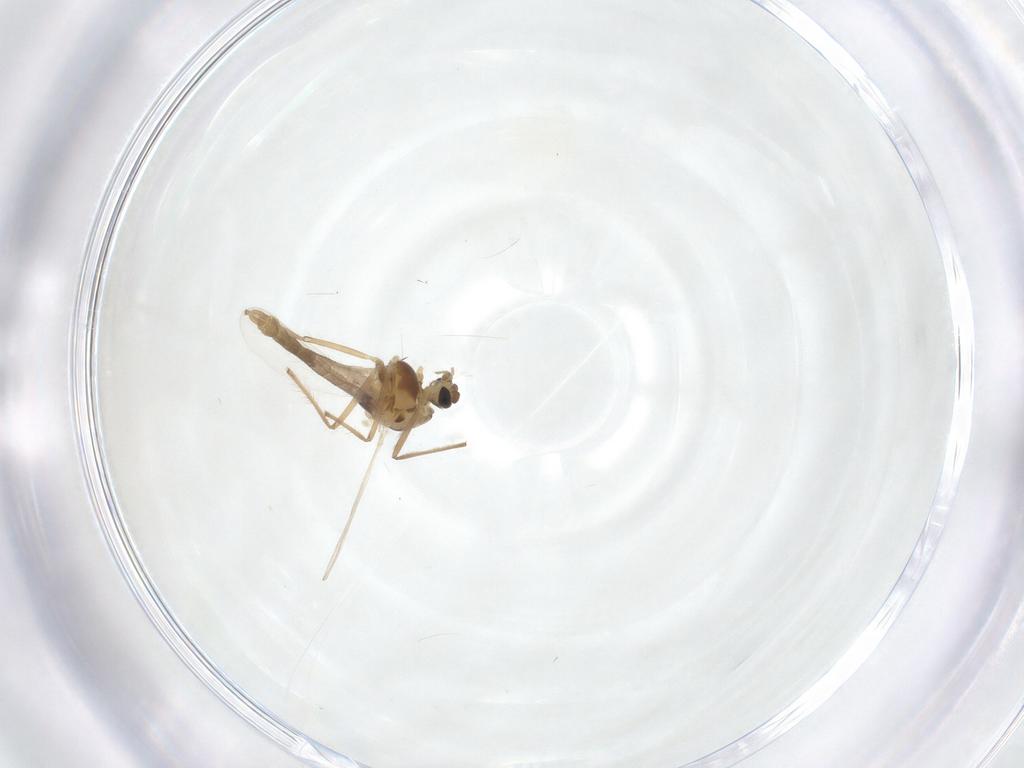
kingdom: Animalia
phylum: Arthropoda
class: Insecta
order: Diptera
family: Chironomidae
